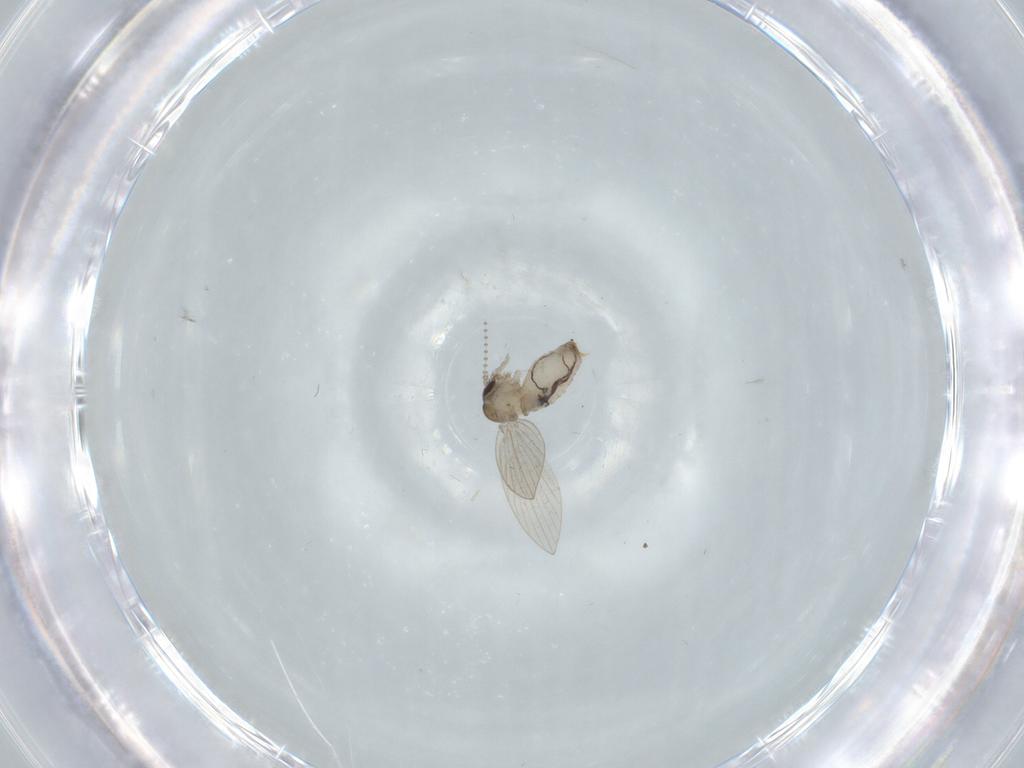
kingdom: Animalia
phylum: Arthropoda
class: Insecta
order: Diptera
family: Psychodidae
